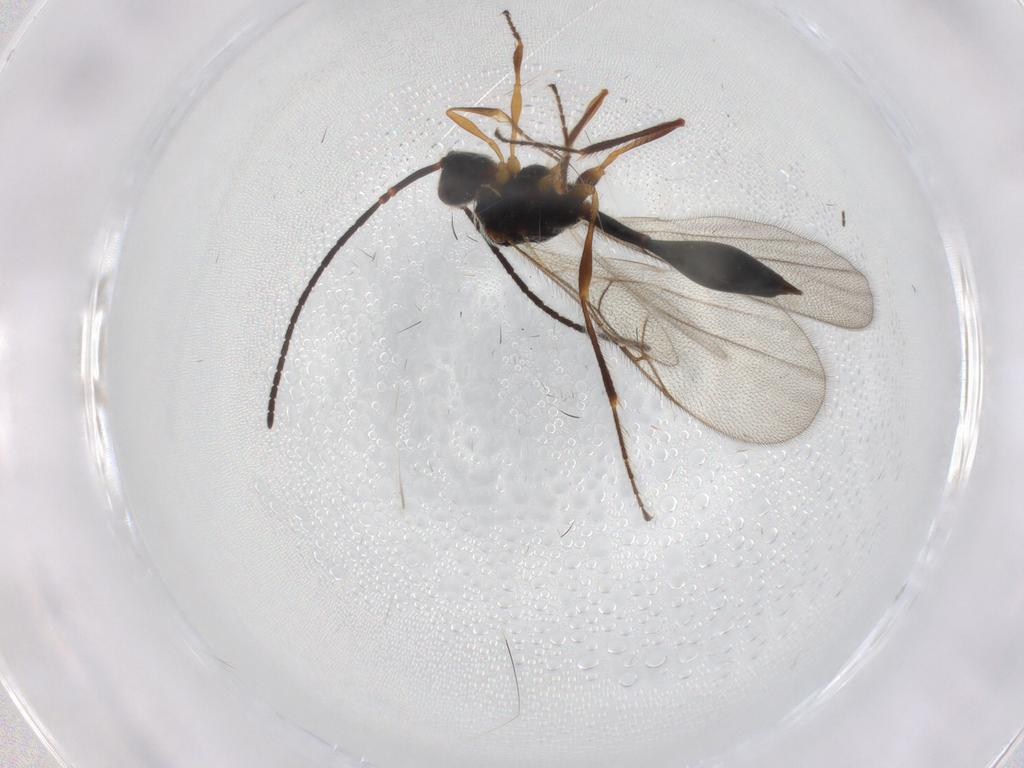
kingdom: Animalia
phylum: Arthropoda
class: Insecta
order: Hymenoptera
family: Diapriidae
